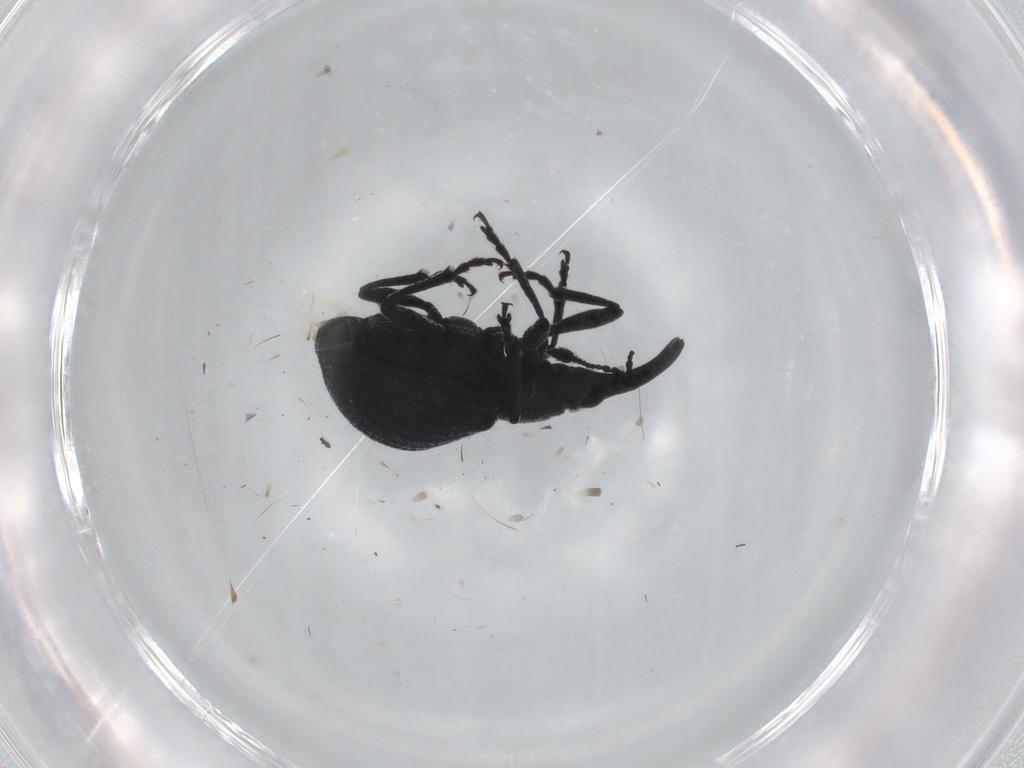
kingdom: Animalia
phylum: Arthropoda
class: Insecta
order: Coleoptera
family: Brentidae
